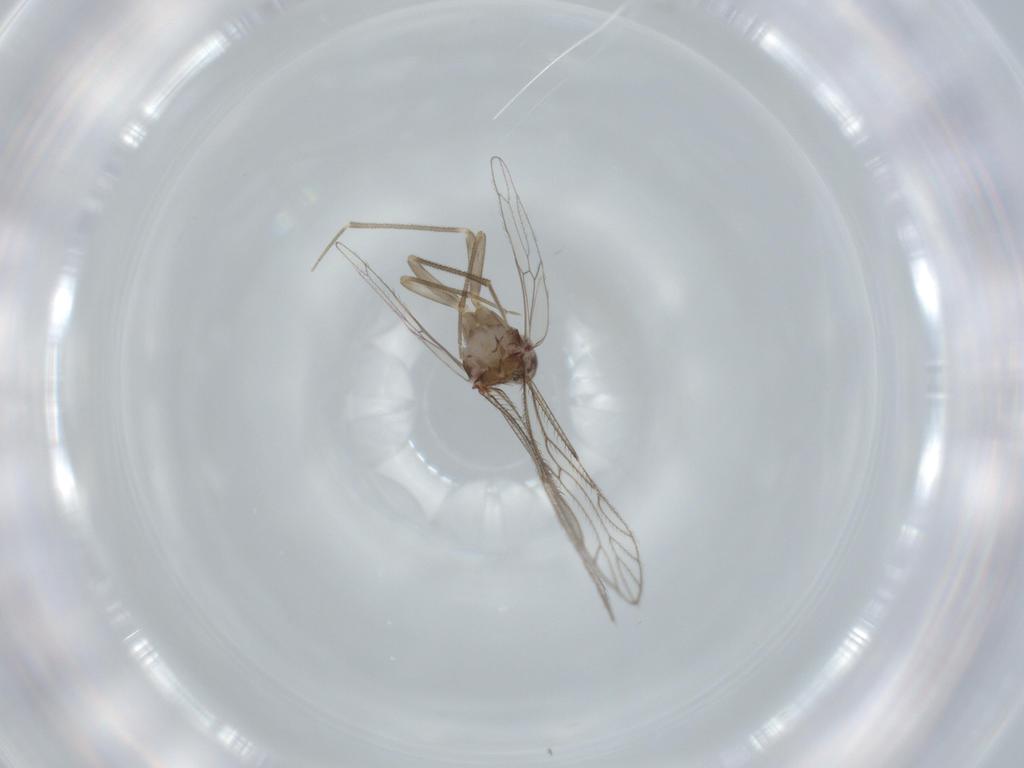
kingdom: Animalia
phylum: Arthropoda
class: Insecta
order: Psocodea
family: Epipsocidae
